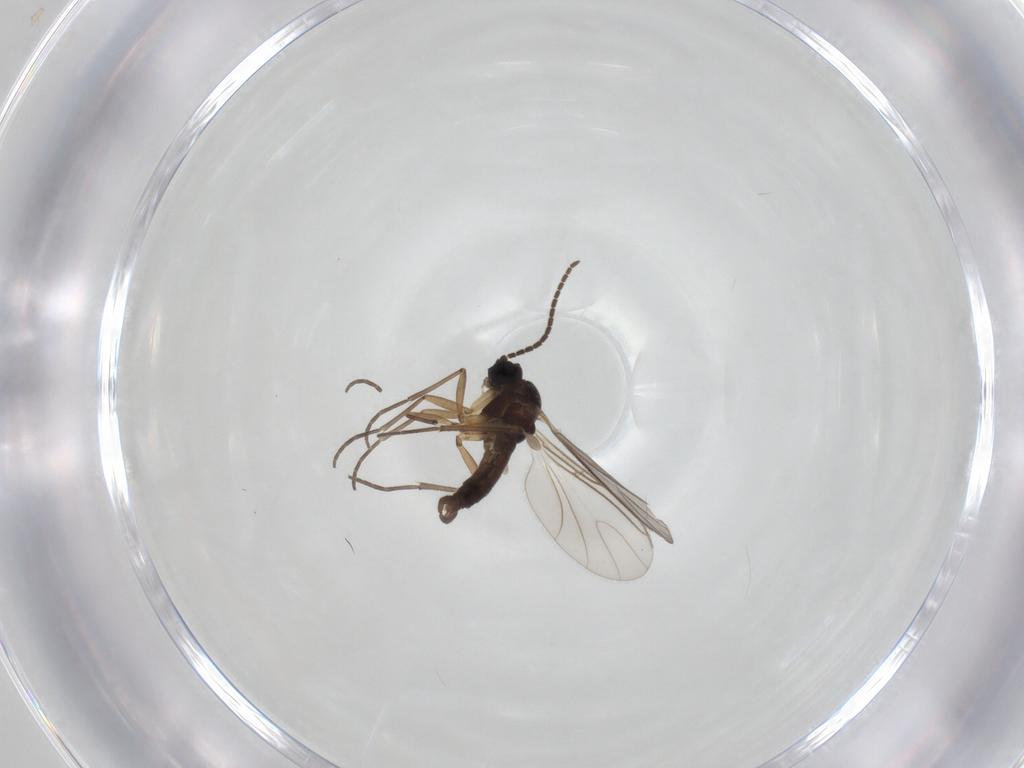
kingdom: Animalia
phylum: Arthropoda
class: Insecta
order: Diptera
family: Sciaridae
